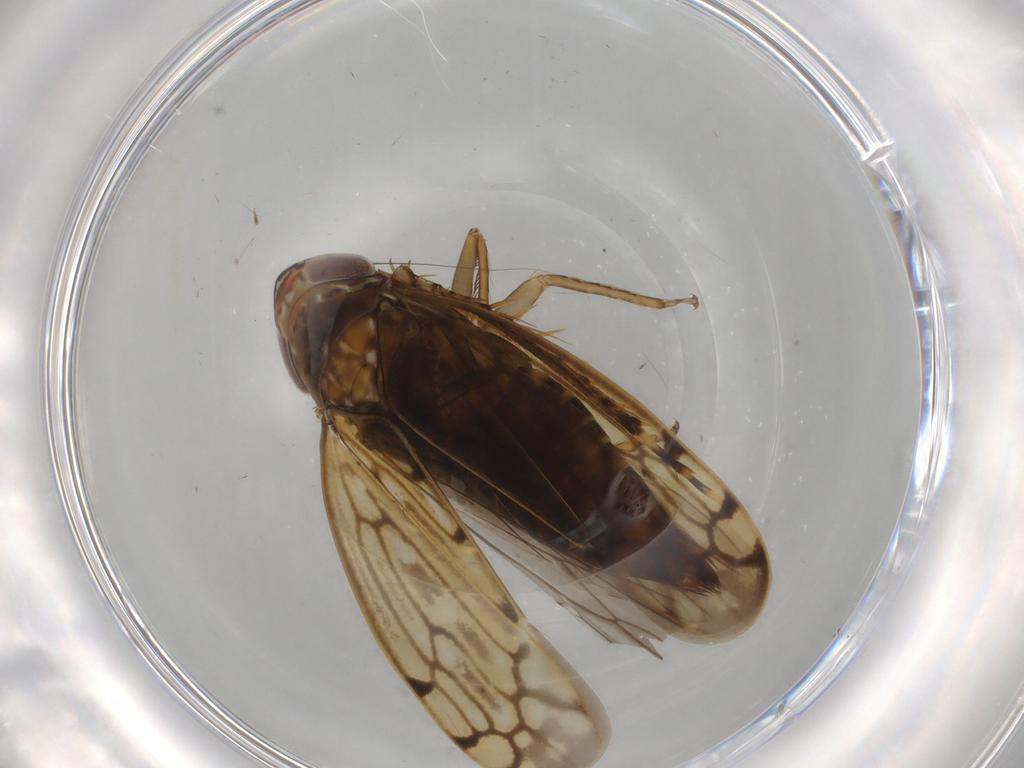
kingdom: Animalia
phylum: Arthropoda
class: Insecta
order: Hemiptera
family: Cicadellidae
